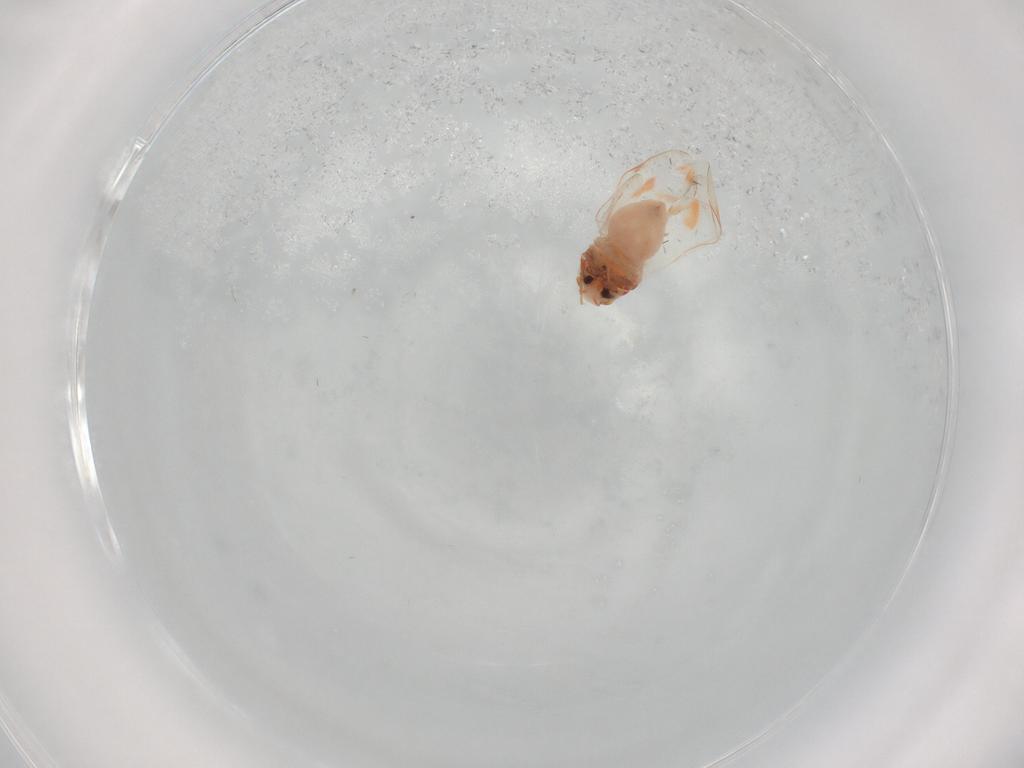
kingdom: Animalia
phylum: Arthropoda
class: Insecta
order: Hemiptera
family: Aleyrodidae
